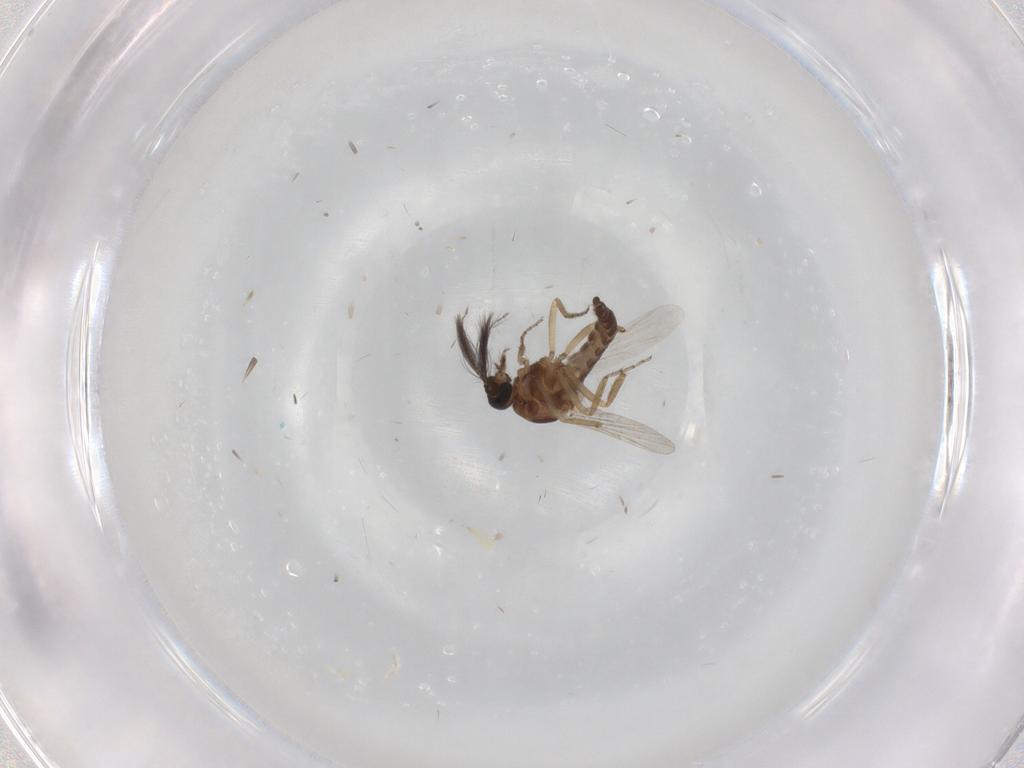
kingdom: Animalia
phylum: Arthropoda
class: Insecta
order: Diptera
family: Ceratopogonidae
